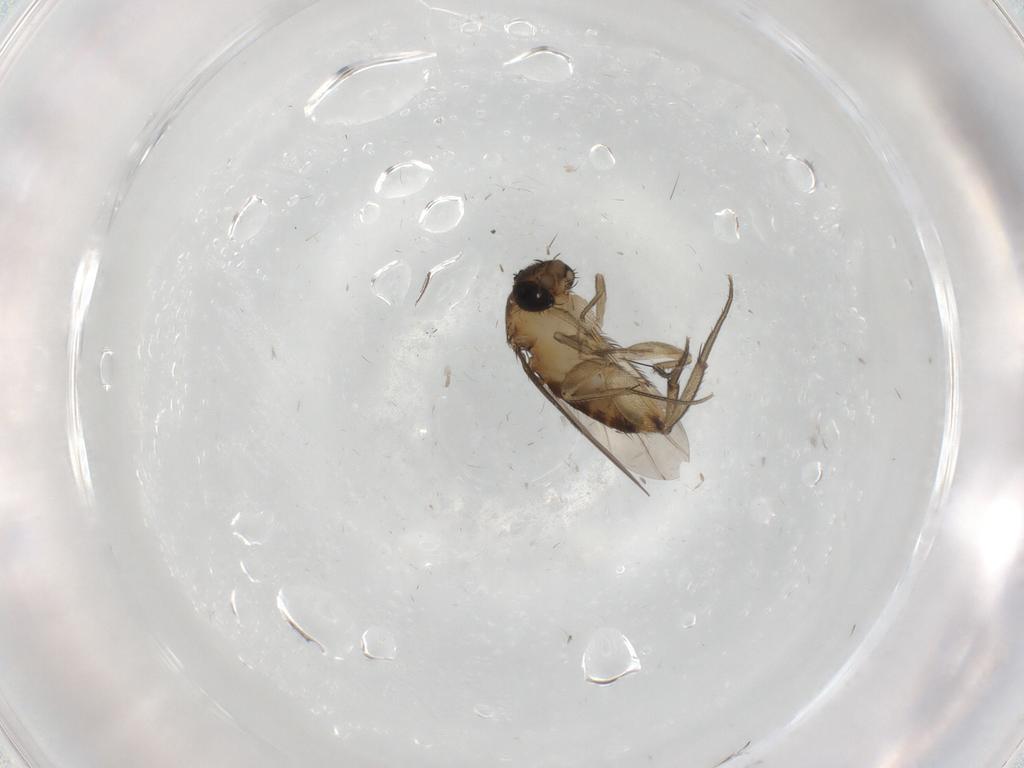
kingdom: Animalia
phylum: Arthropoda
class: Insecta
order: Diptera
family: Phoridae
